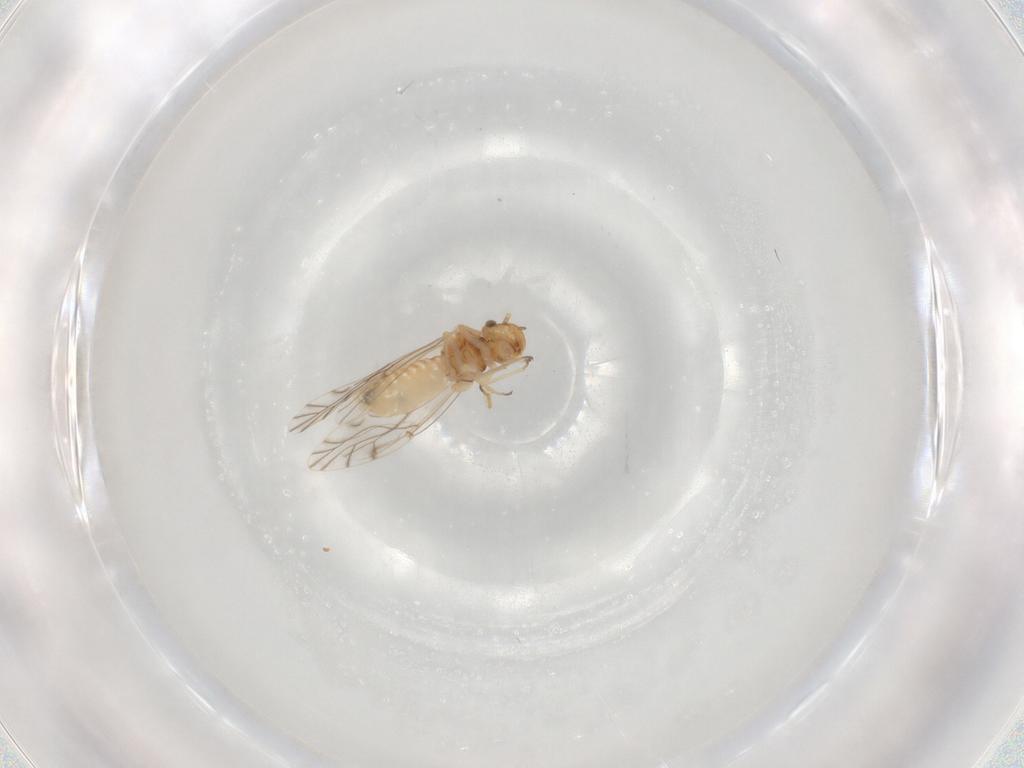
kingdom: Animalia
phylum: Arthropoda
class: Insecta
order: Psocodea
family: Lachesillidae
